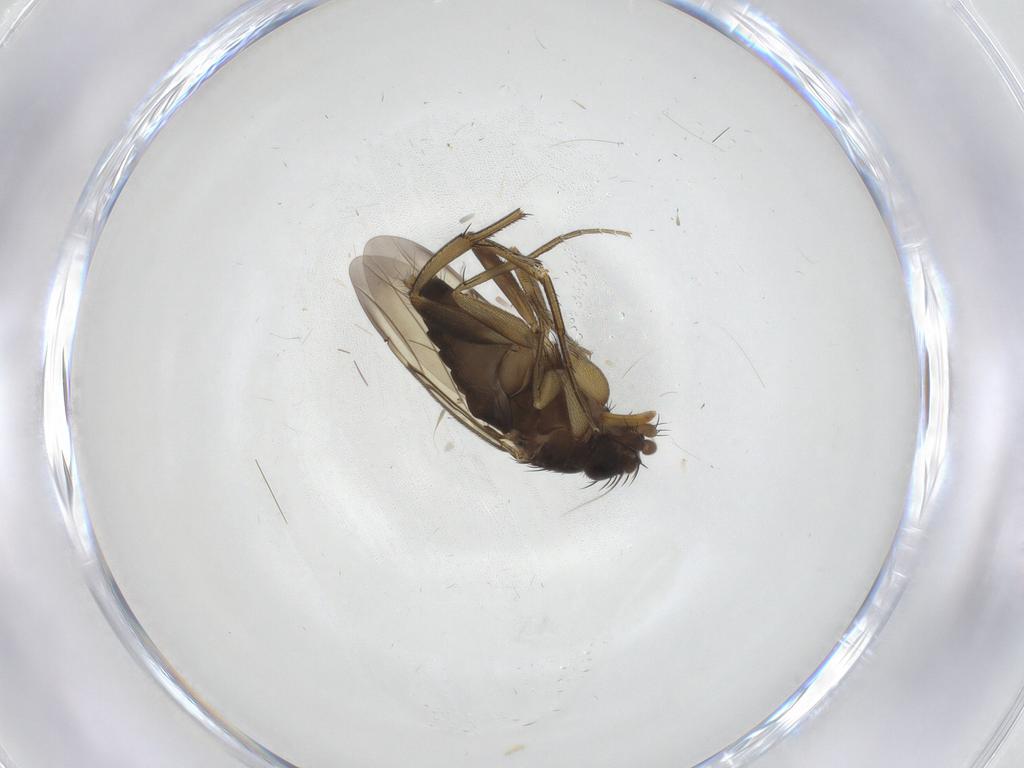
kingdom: Animalia
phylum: Arthropoda
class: Insecta
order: Diptera
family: Phoridae
